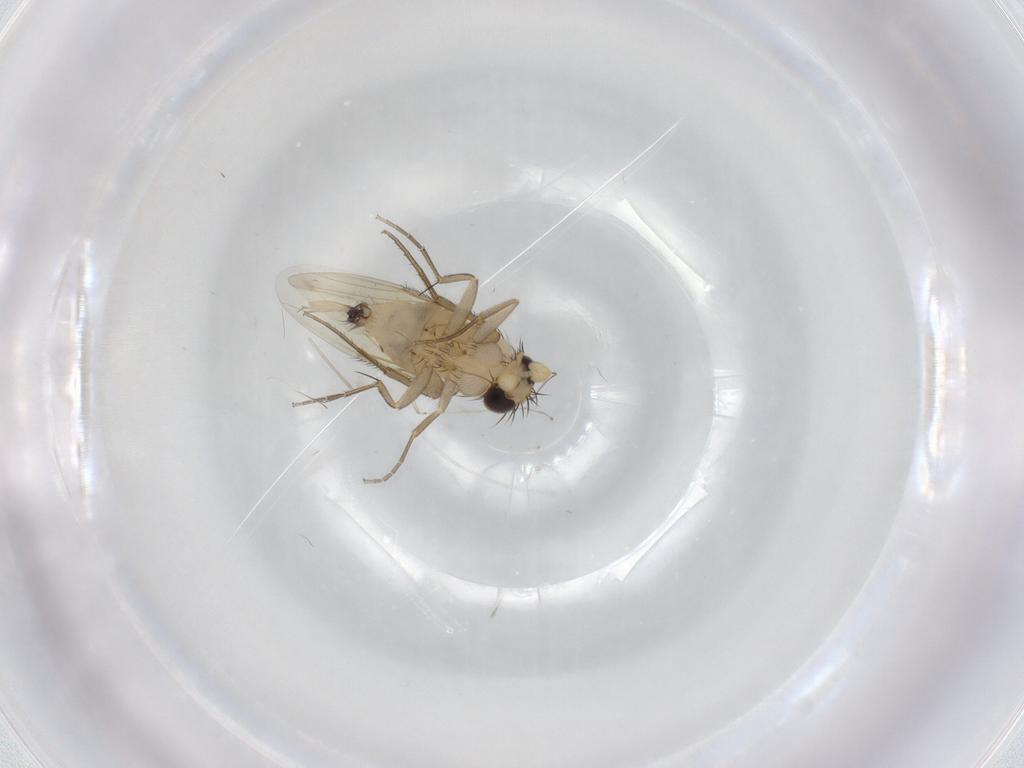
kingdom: Animalia
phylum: Arthropoda
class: Insecta
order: Diptera
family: Phoridae
